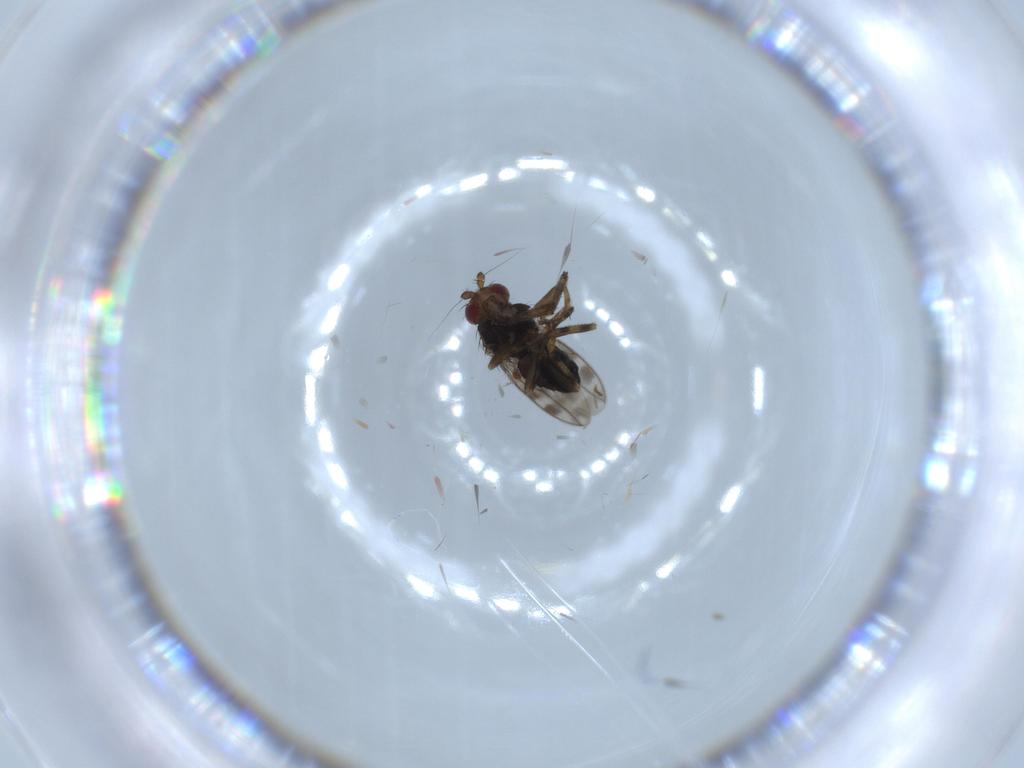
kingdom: Animalia
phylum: Arthropoda
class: Insecta
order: Diptera
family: Sphaeroceridae
